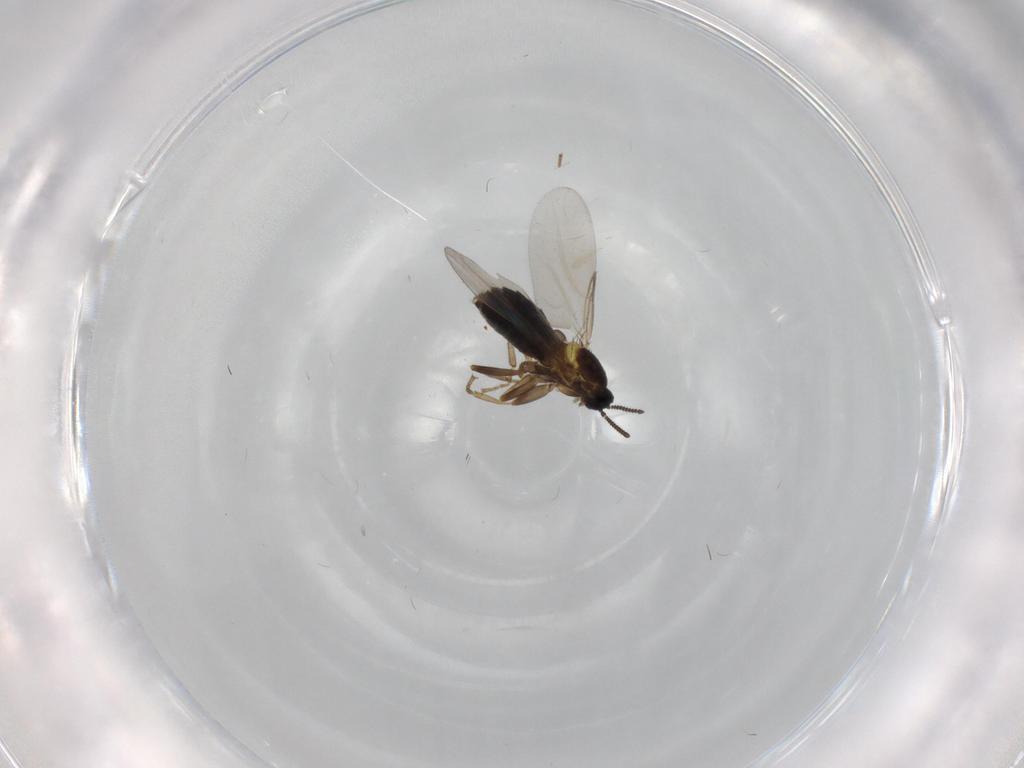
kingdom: Animalia
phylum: Arthropoda
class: Insecta
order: Diptera
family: Scatopsidae
